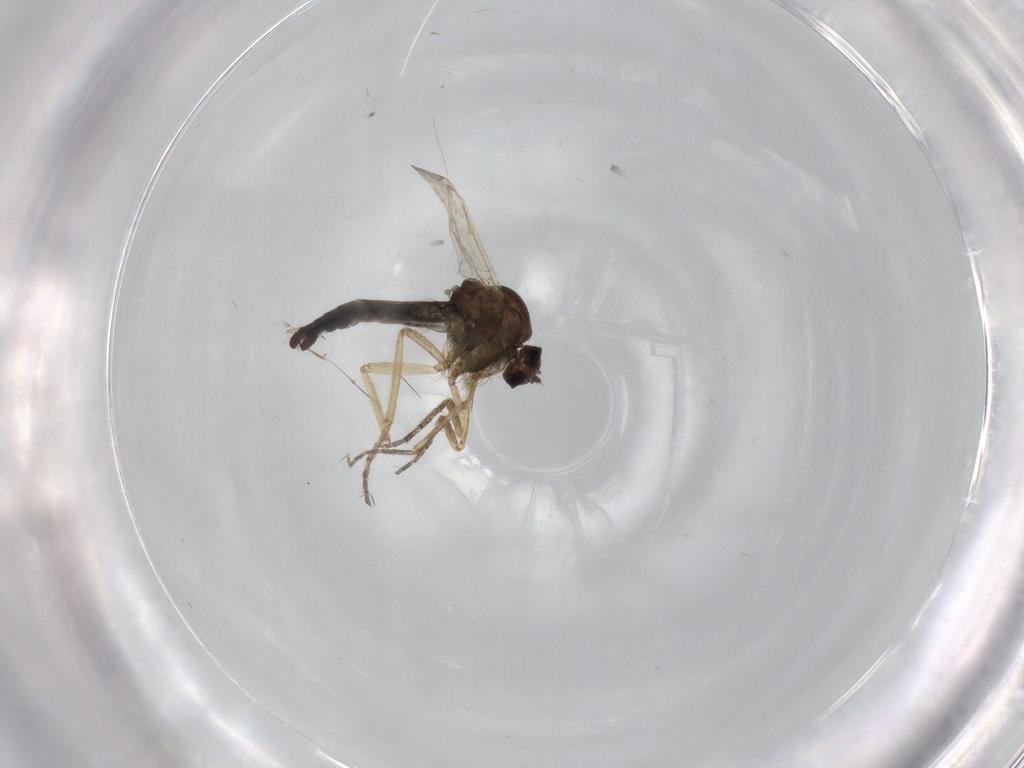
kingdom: Animalia
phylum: Arthropoda
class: Insecta
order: Diptera
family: Ceratopogonidae
